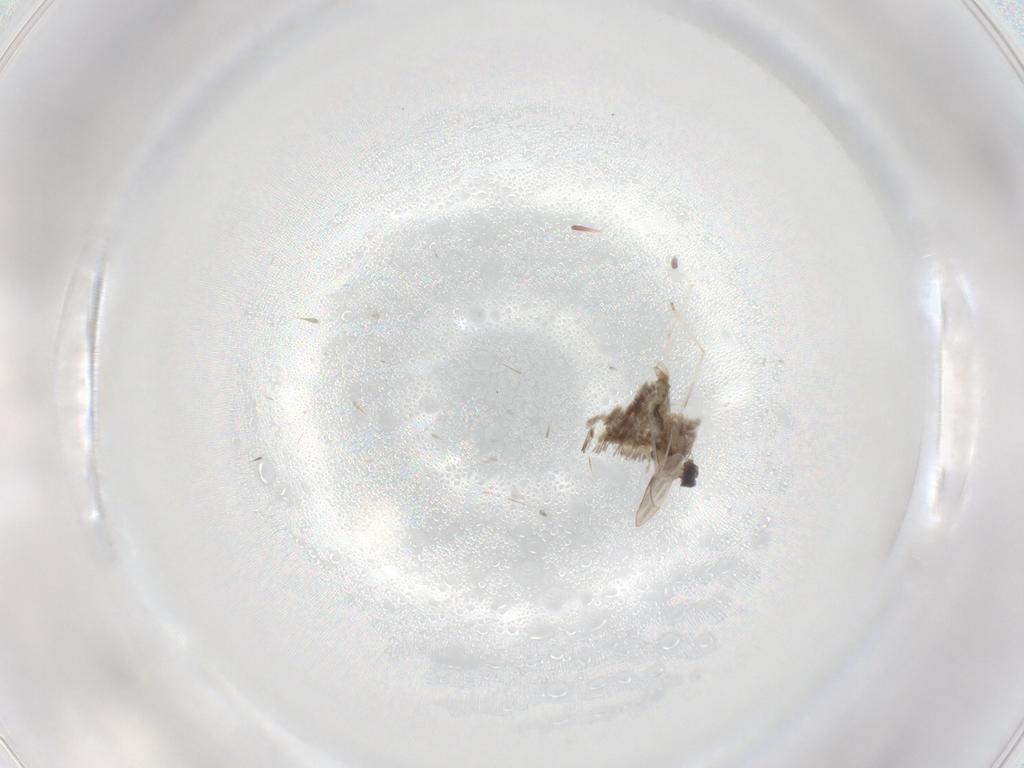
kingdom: Animalia
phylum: Arthropoda
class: Insecta
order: Diptera
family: Cecidomyiidae
